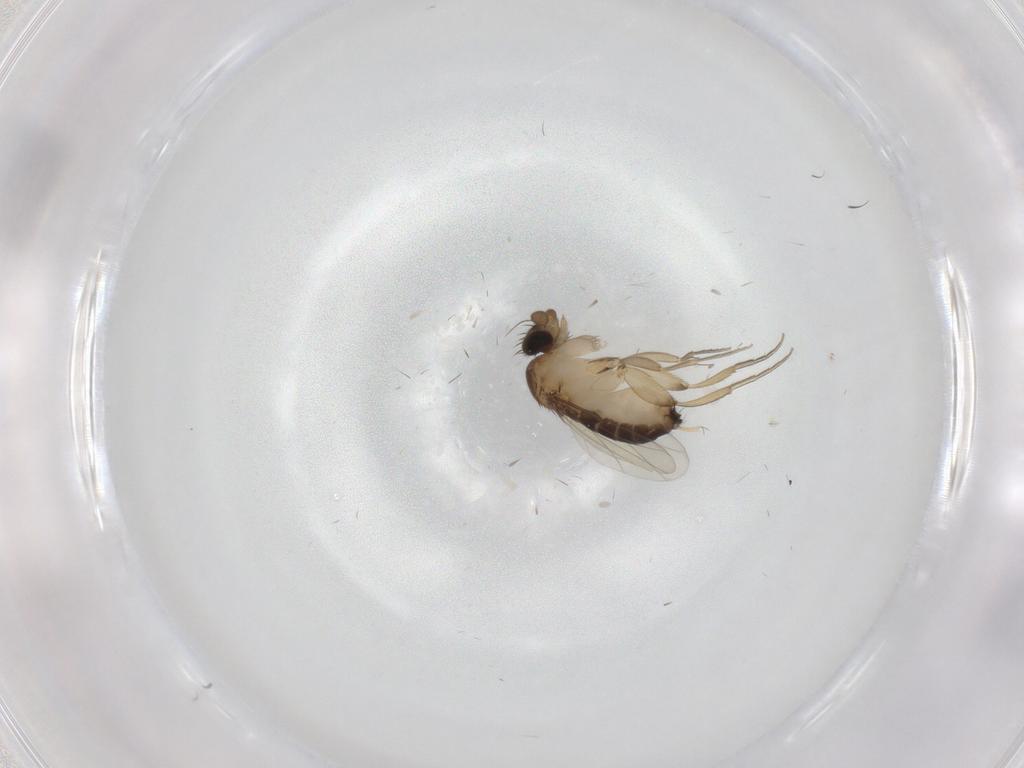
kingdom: Animalia
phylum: Arthropoda
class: Insecta
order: Diptera
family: Phoridae
